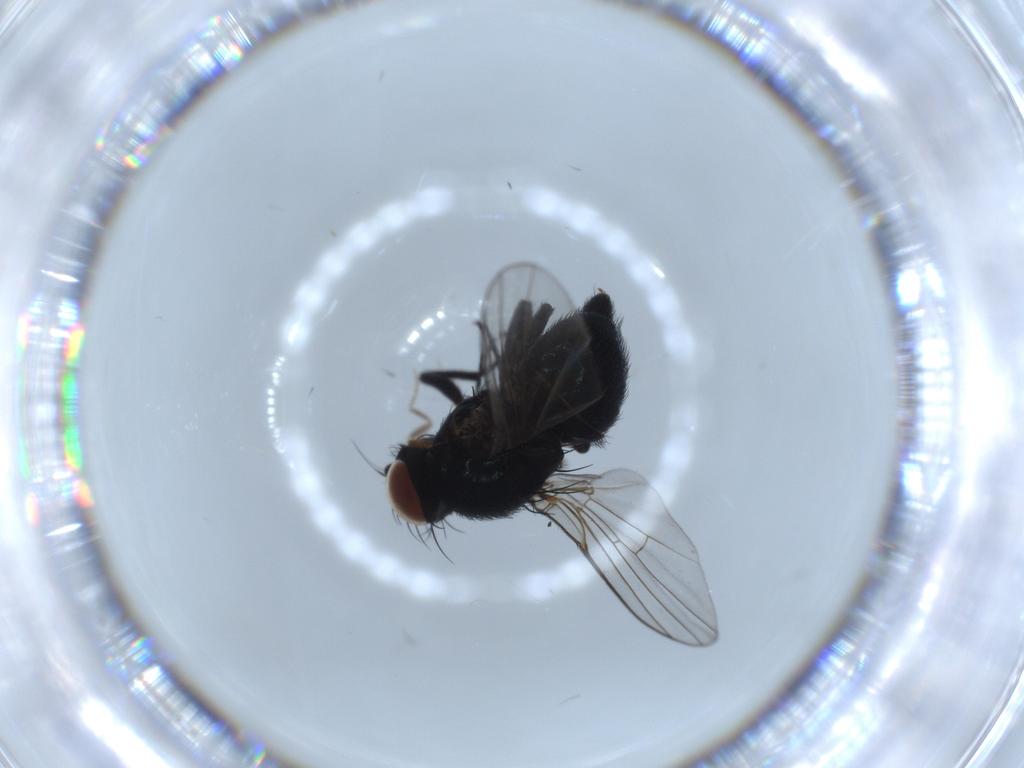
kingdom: Animalia
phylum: Arthropoda
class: Insecta
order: Diptera
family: Agromyzidae
